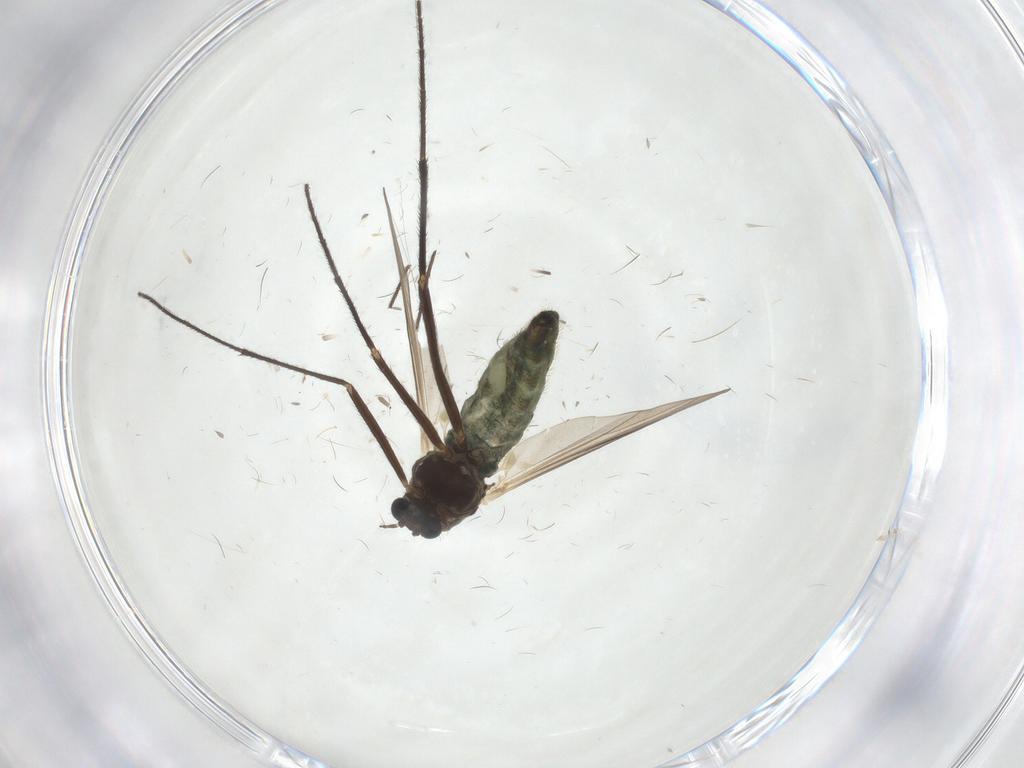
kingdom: Animalia
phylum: Arthropoda
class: Insecta
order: Diptera
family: Chironomidae
